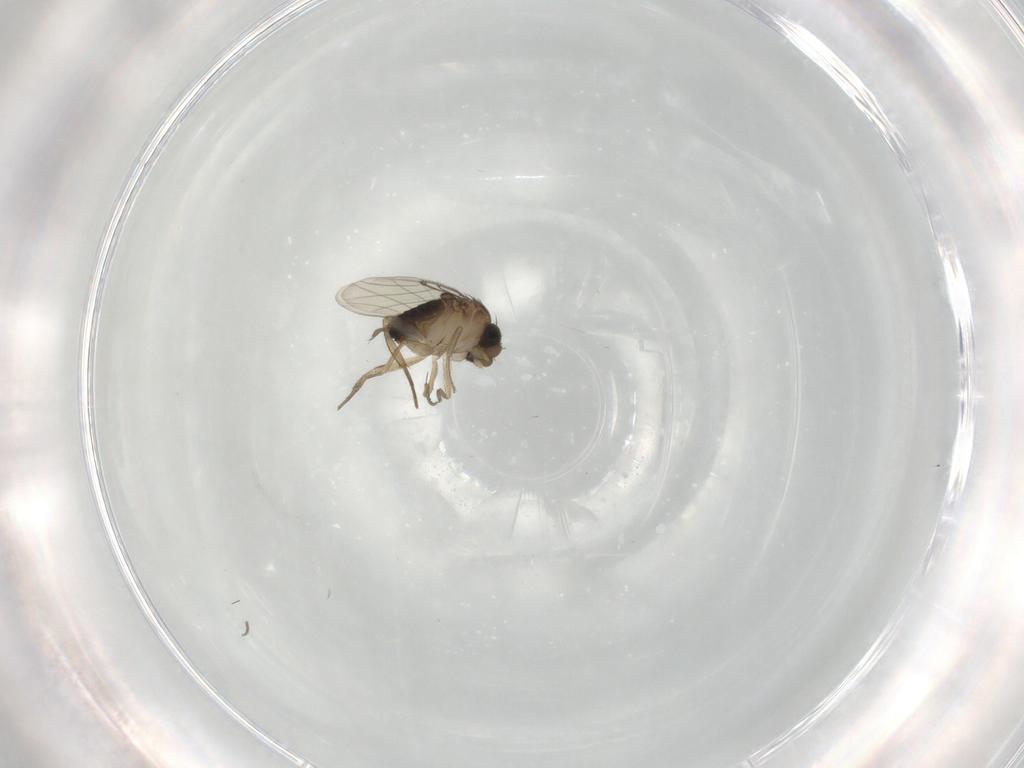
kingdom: Animalia
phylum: Arthropoda
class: Insecta
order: Diptera
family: Cecidomyiidae
